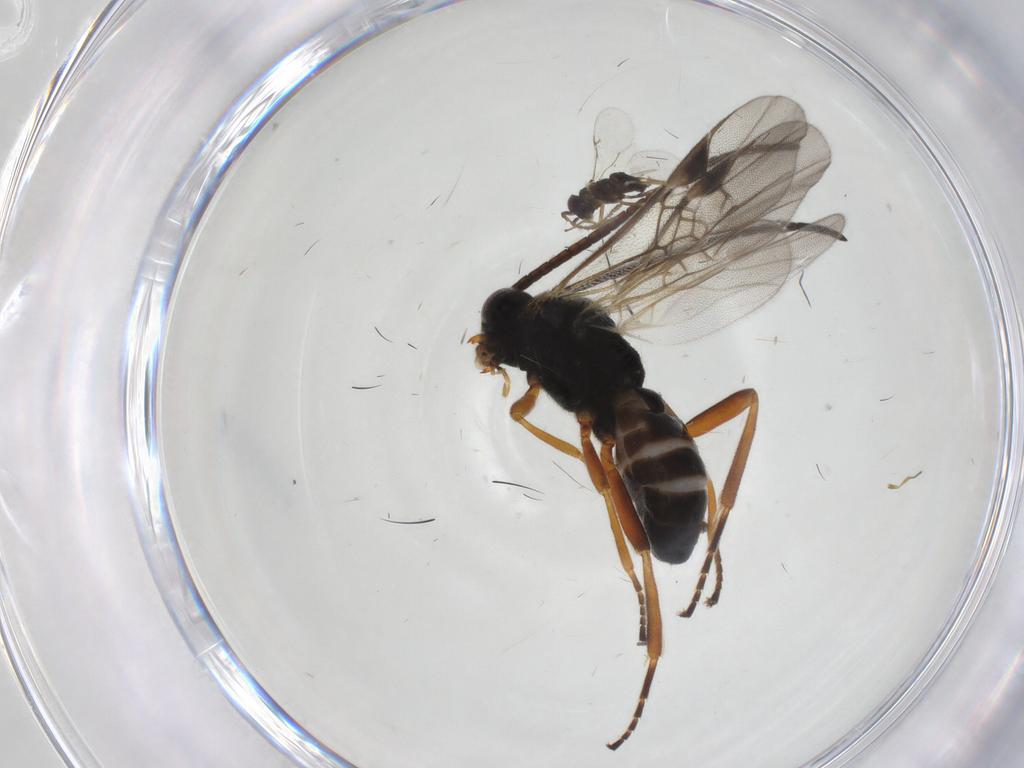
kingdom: Animalia
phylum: Arthropoda
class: Insecta
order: Hymenoptera
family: Braconidae
